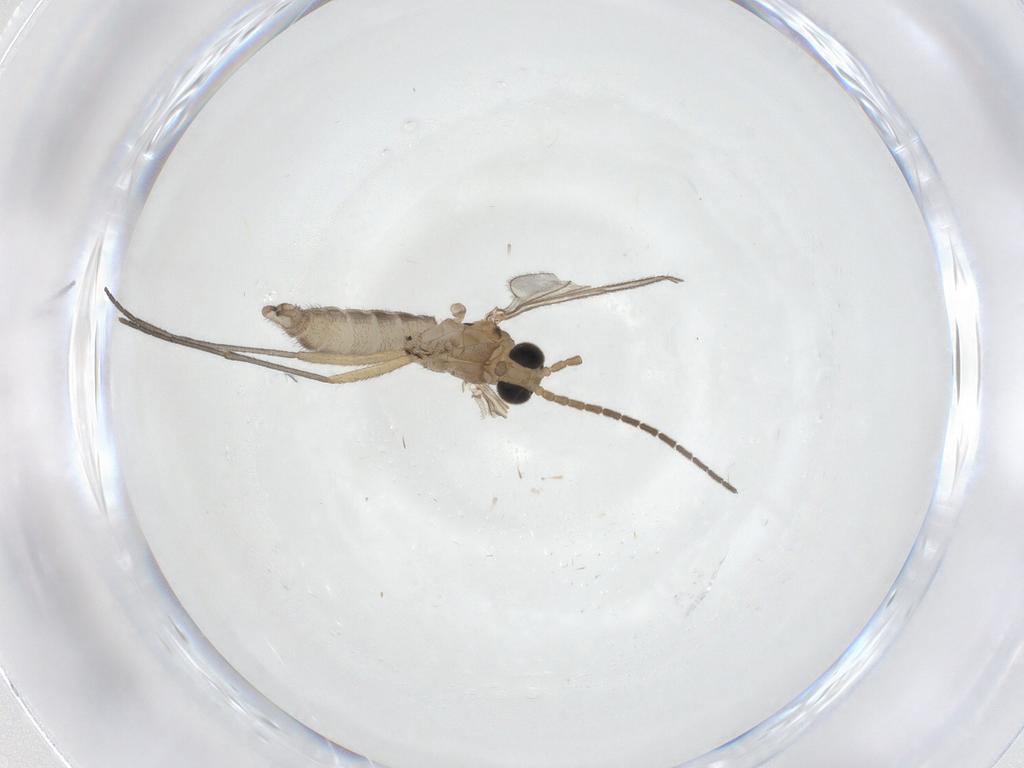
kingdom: Animalia
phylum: Arthropoda
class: Insecta
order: Diptera
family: Sciaridae
